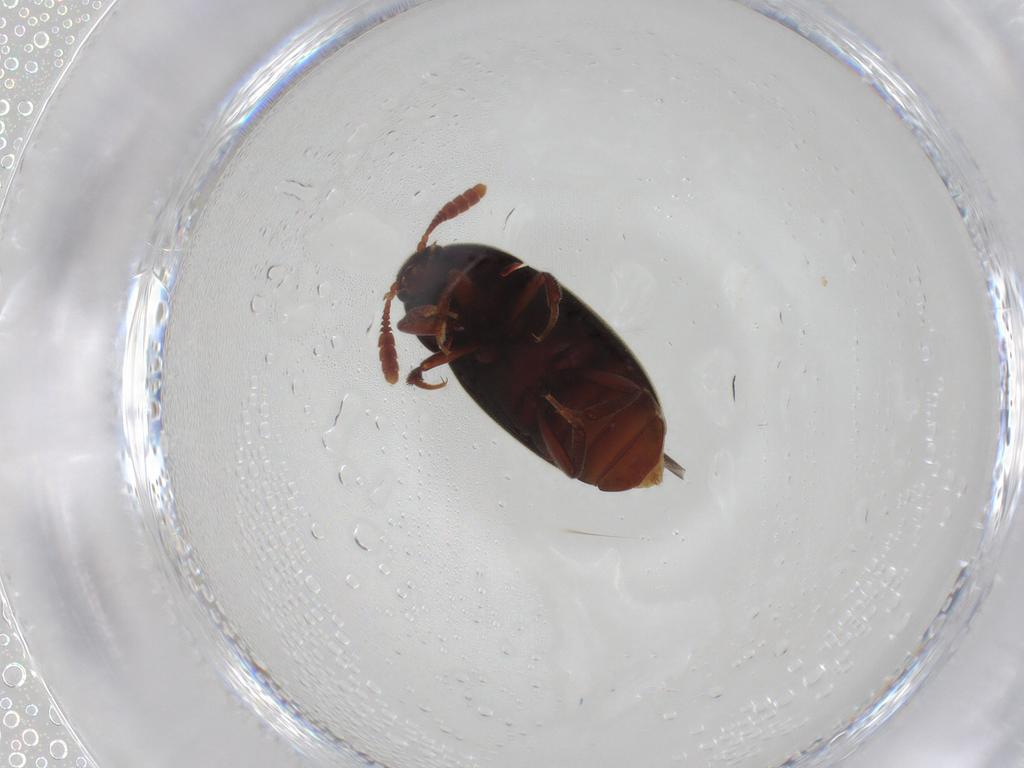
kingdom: Animalia
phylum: Arthropoda
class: Insecta
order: Coleoptera
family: Leiodidae
